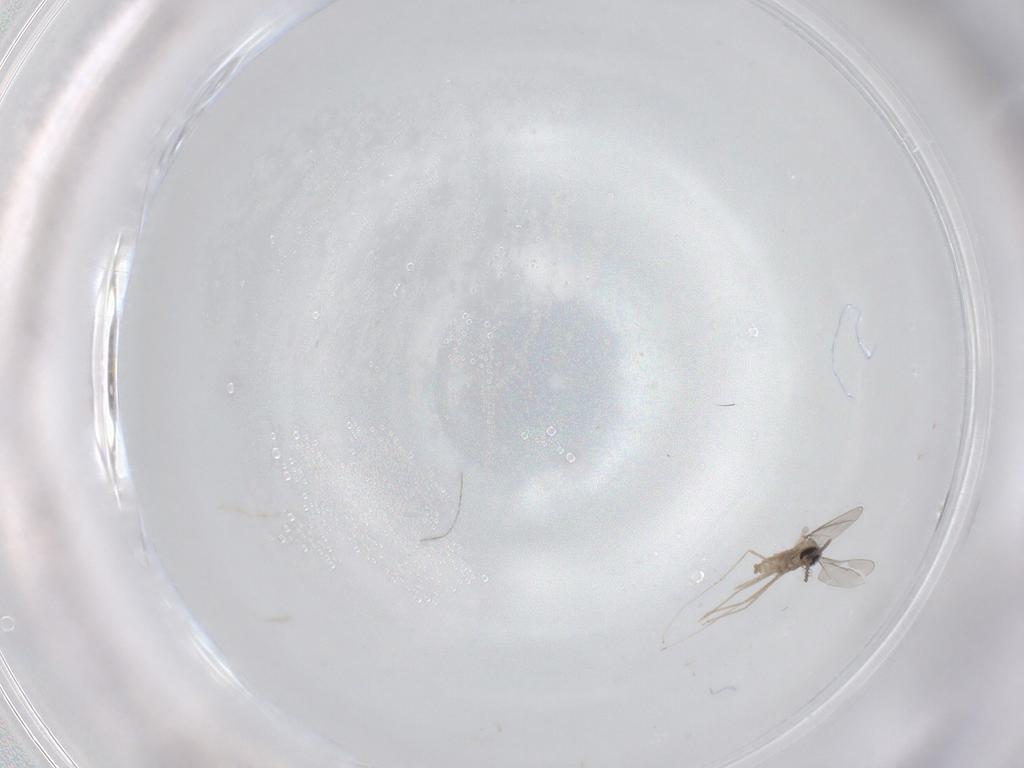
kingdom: Animalia
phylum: Arthropoda
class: Insecta
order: Diptera
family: Cecidomyiidae
